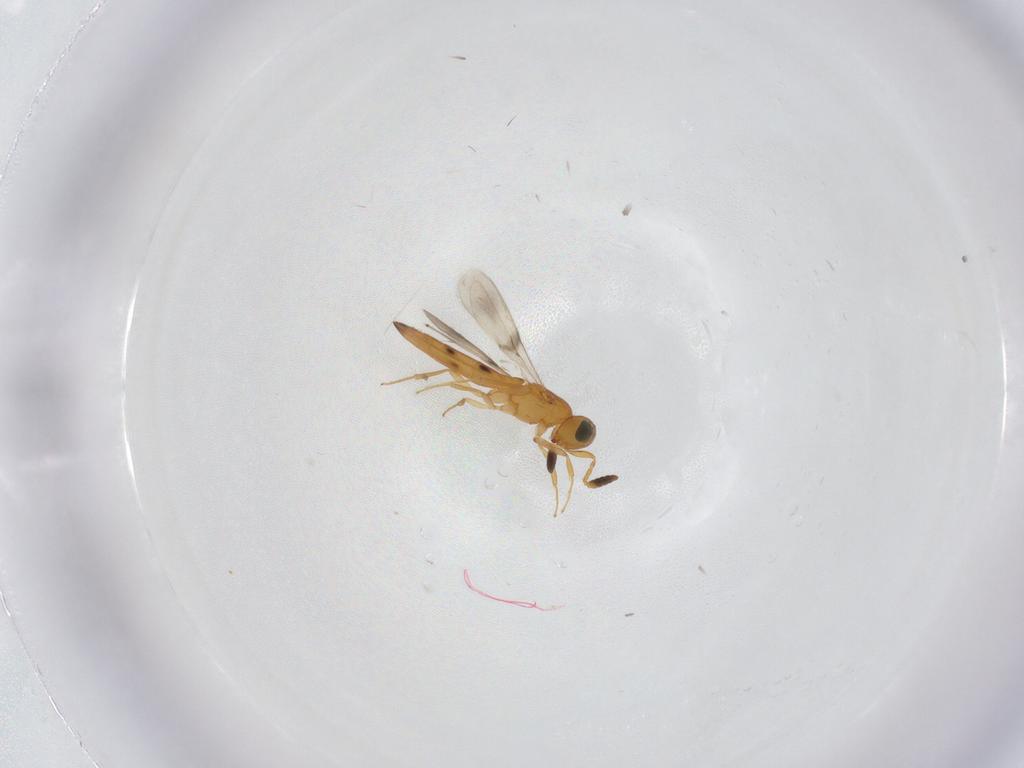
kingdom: Animalia
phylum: Arthropoda
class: Insecta
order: Hymenoptera
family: Scelionidae
